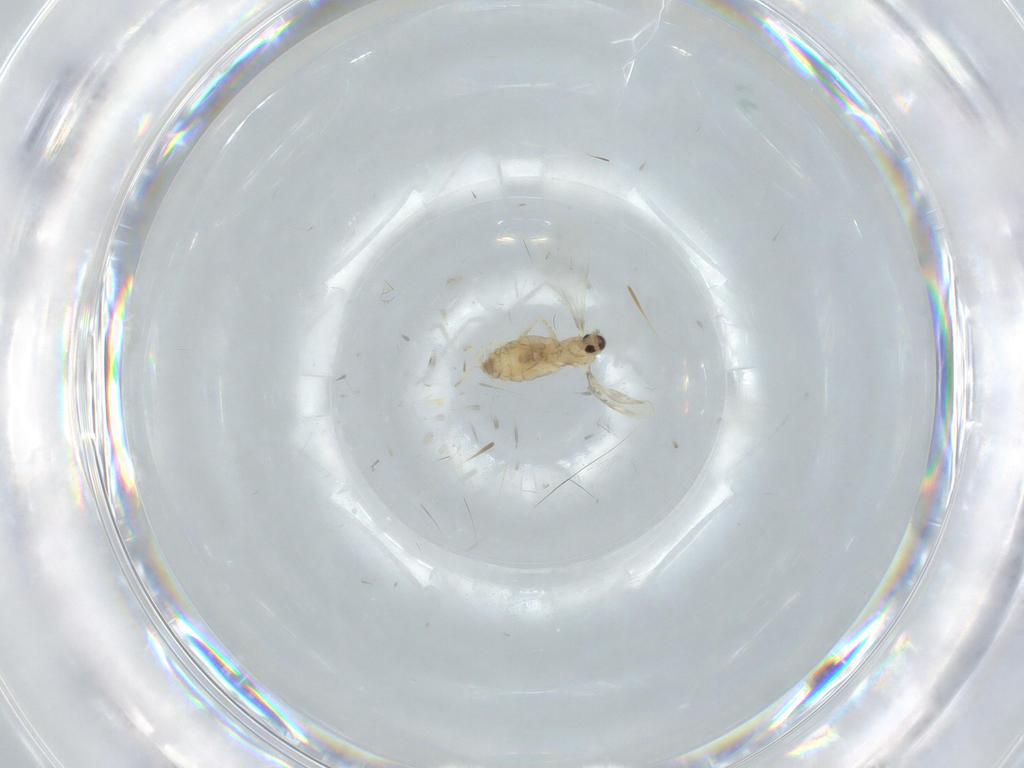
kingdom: Animalia
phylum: Arthropoda
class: Insecta
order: Diptera
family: Cecidomyiidae
